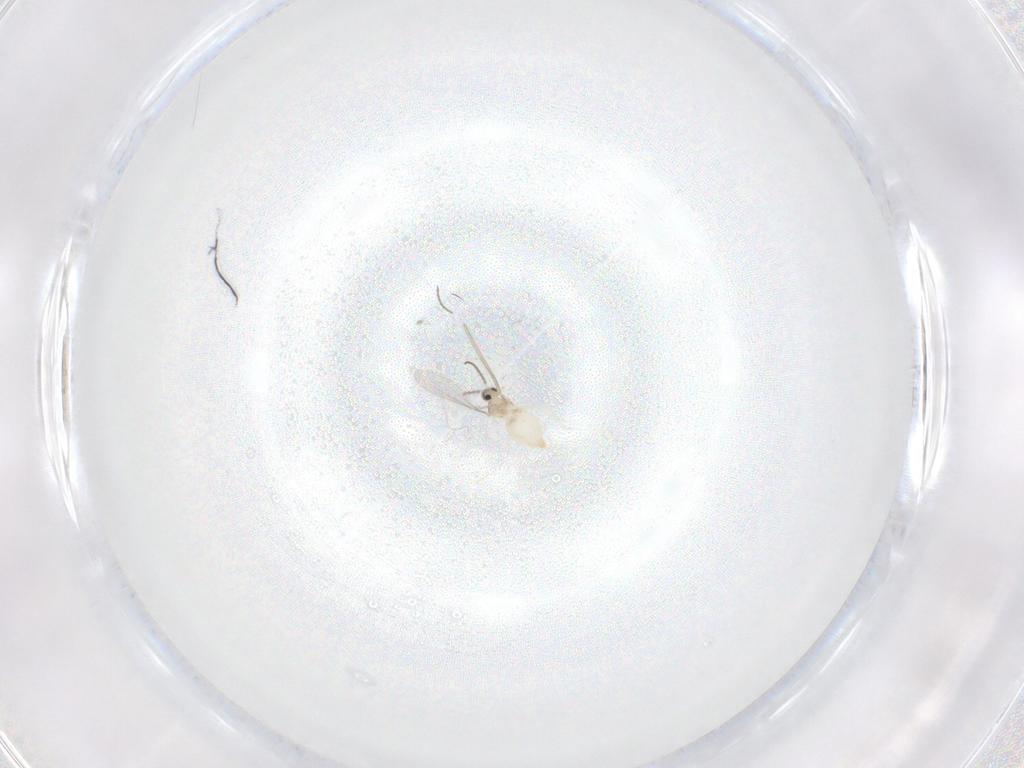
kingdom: Animalia
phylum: Arthropoda
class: Insecta
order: Diptera
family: Cecidomyiidae
